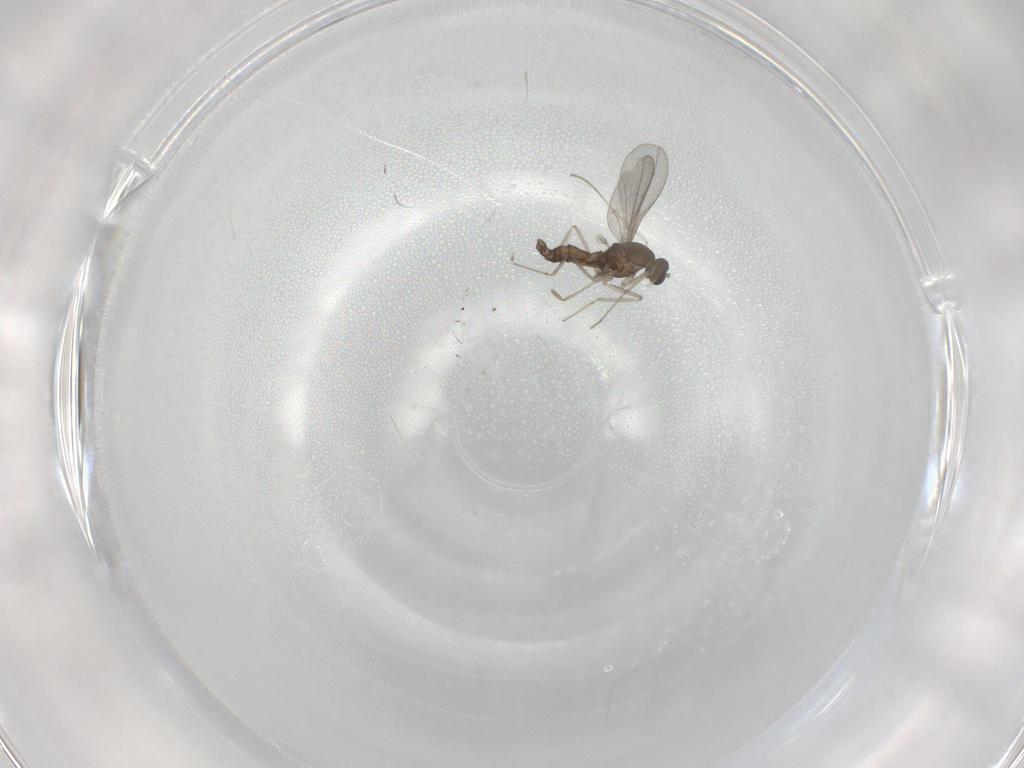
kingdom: Animalia
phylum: Arthropoda
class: Insecta
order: Diptera
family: Cecidomyiidae
